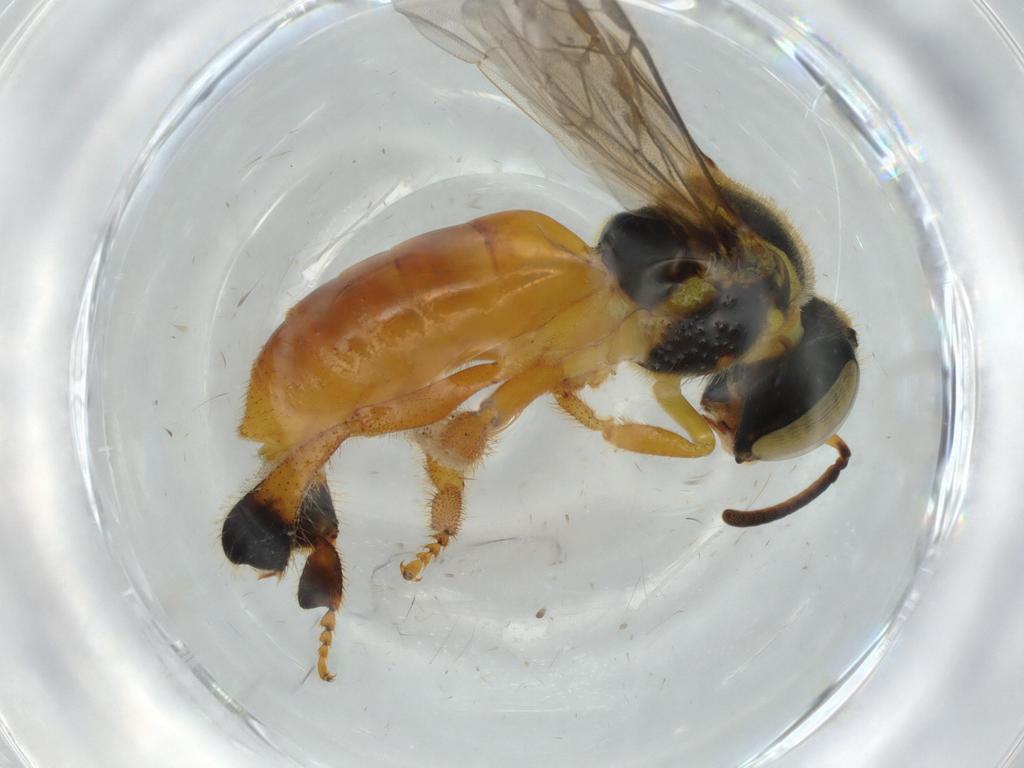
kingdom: Animalia
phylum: Arthropoda
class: Insecta
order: Hymenoptera
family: Apidae
